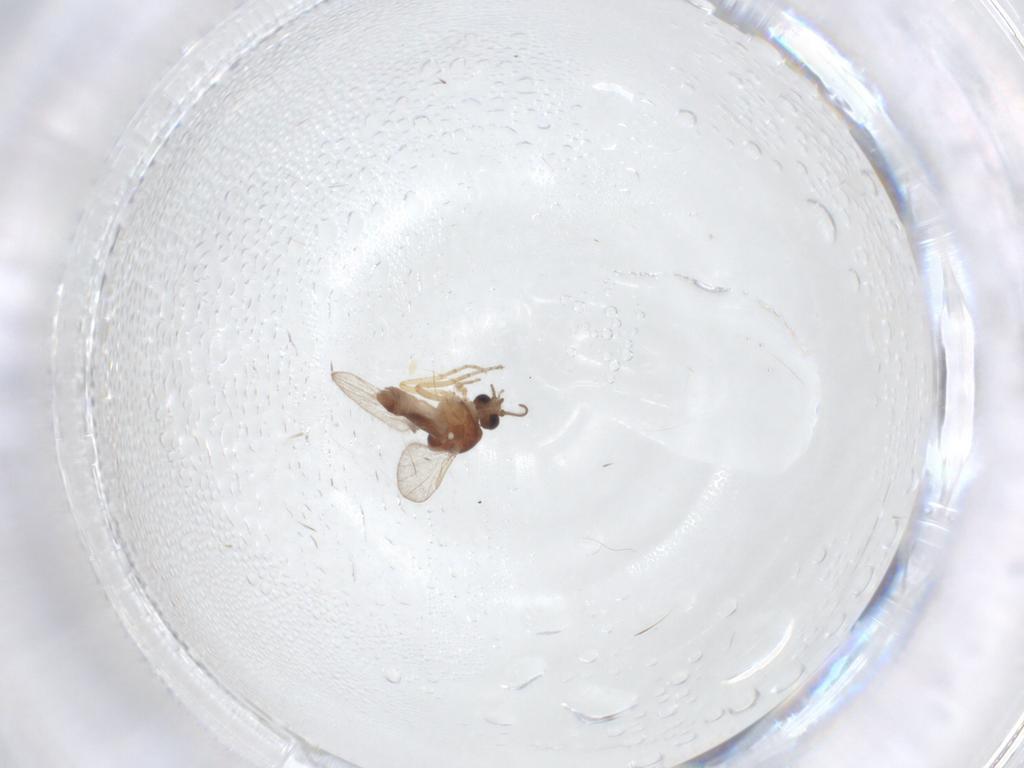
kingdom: Animalia
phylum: Arthropoda
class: Insecta
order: Diptera
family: Ceratopogonidae
